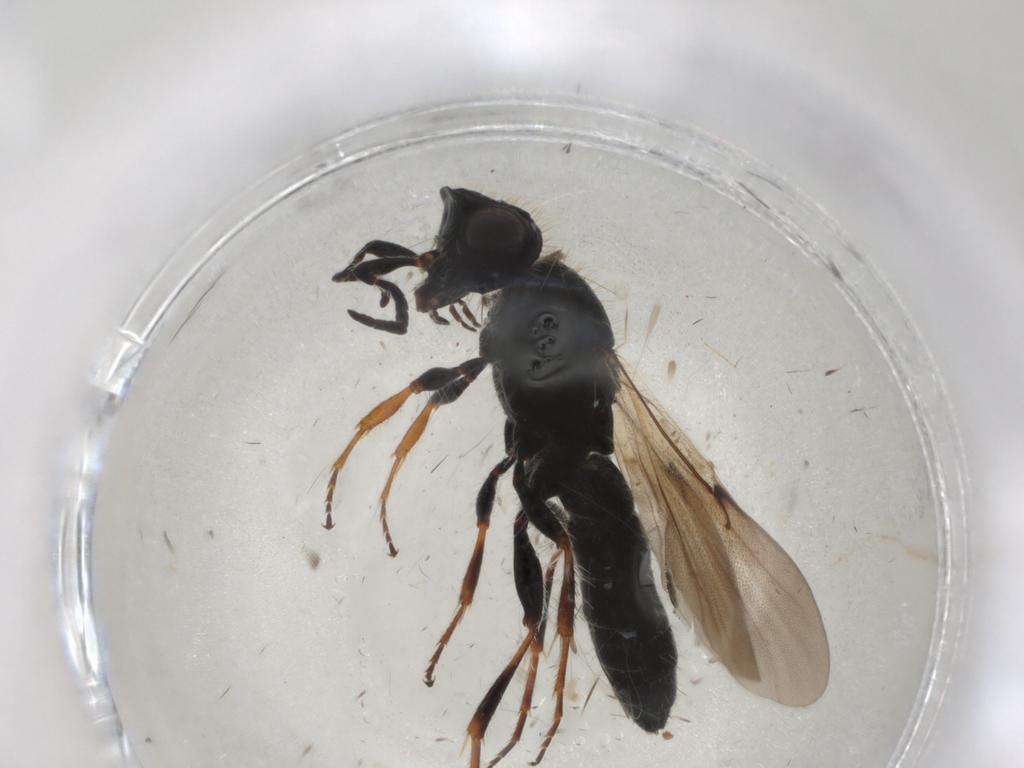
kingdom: Animalia
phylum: Arthropoda
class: Insecta
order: Hymenoptera
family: Scelionidae
